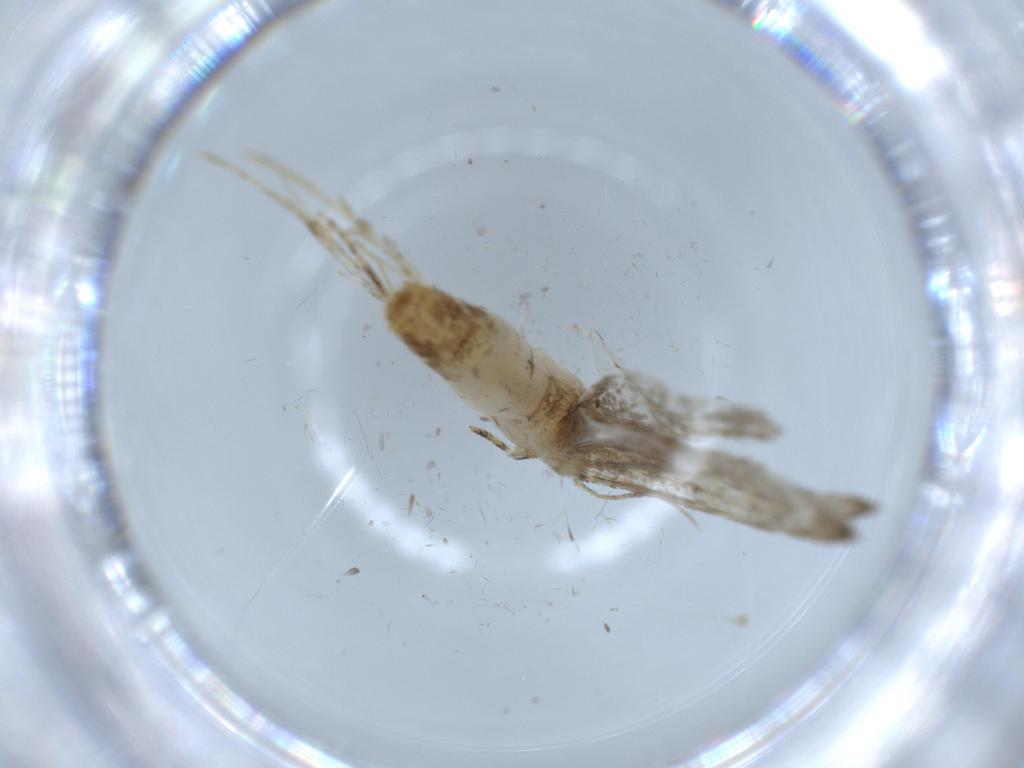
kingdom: Animalia
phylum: Arthropoda
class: Insecta
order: Lepidoptera
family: Tineidae
